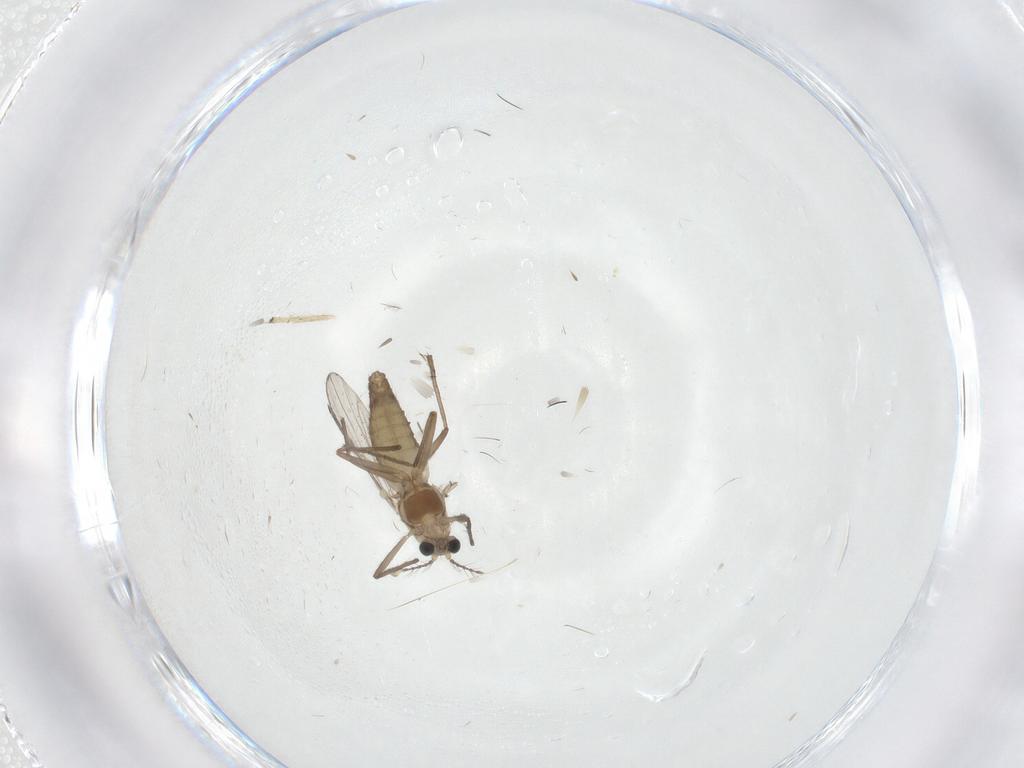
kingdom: Animalia
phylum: Arthropoda
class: Insecta
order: Diptera
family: Chironomidae
